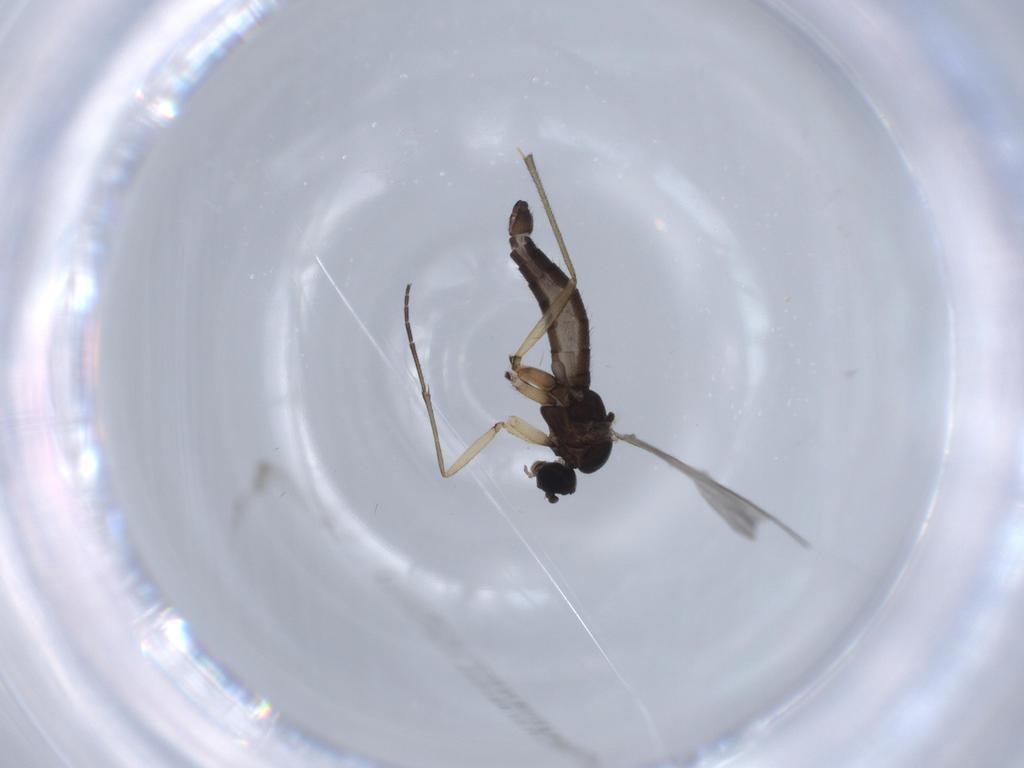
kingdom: Animalia
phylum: Arthropoda
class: Insecta
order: Diptera
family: Sciaridae
